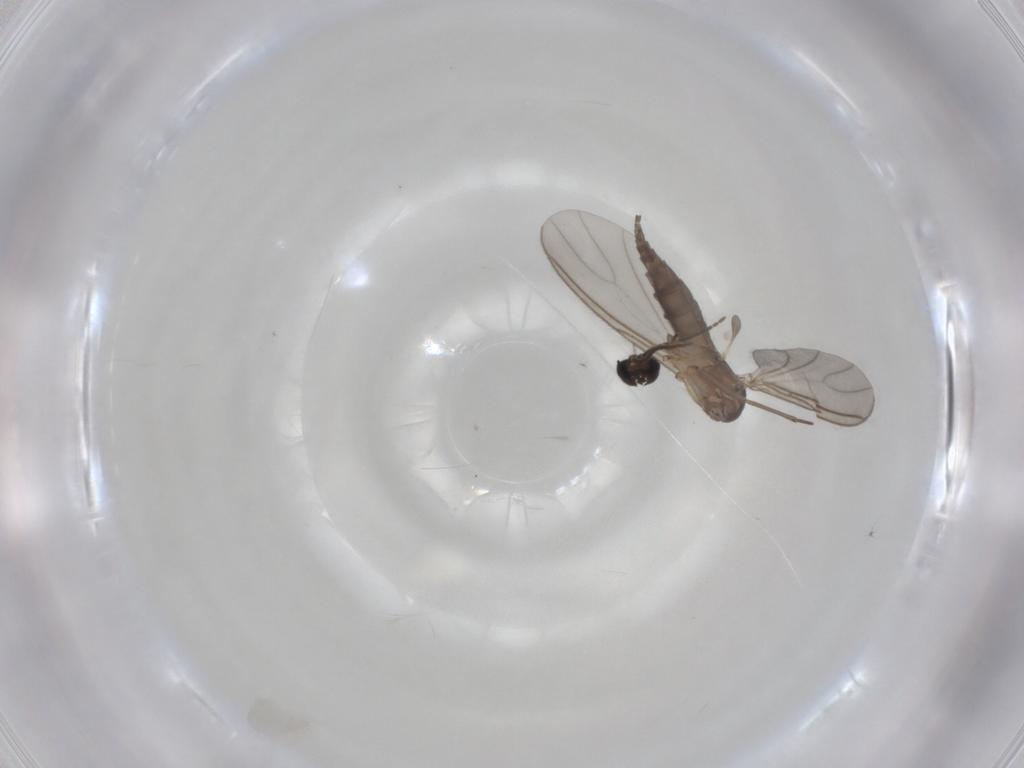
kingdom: Animalia
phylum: Arthropoda
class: Insecta
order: Diptera
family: Sciaridae
